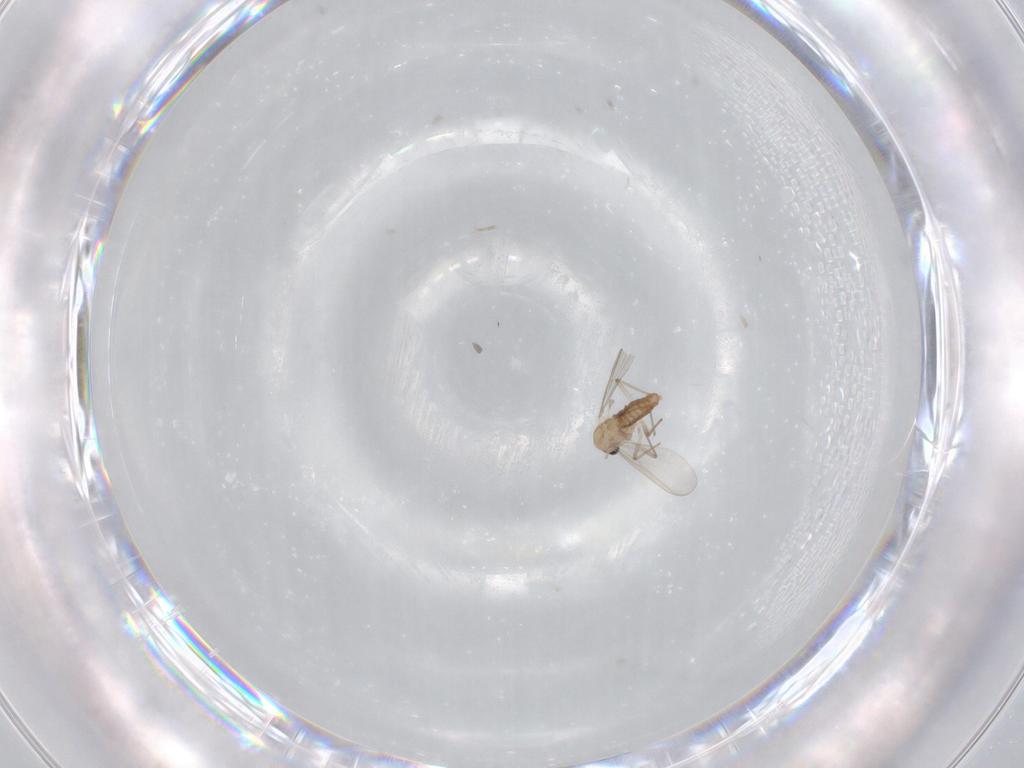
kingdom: Animalia
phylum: Arthropoda
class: Insecta
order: Diptera
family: Chironomidae
